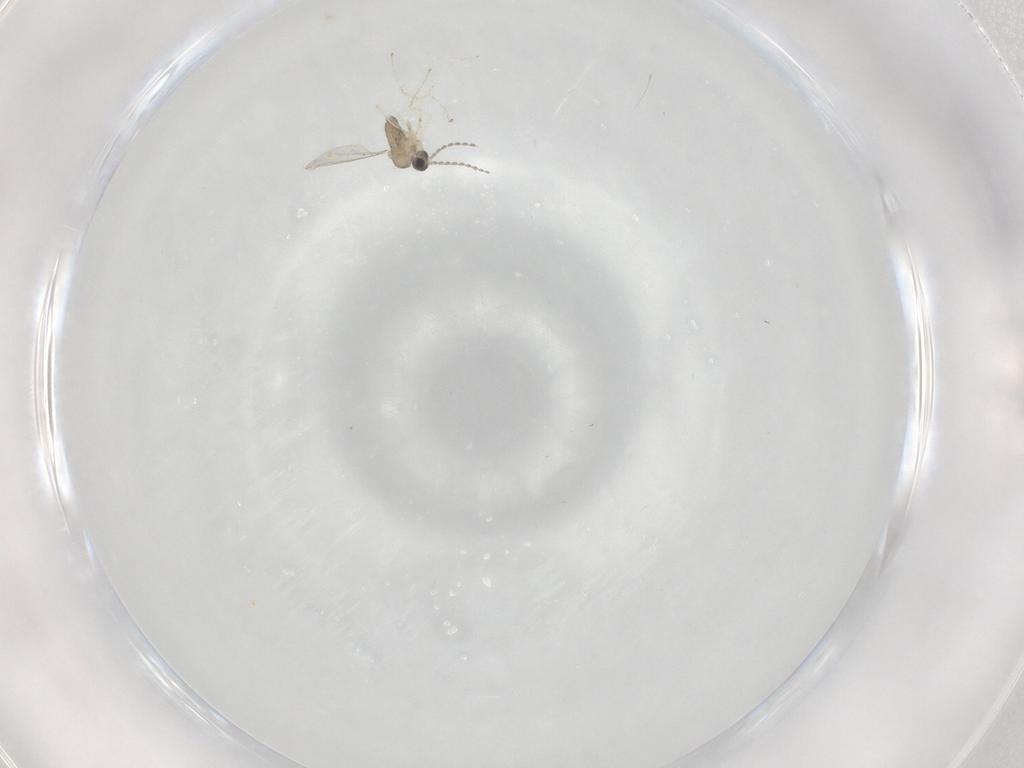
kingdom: Animalia
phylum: Arthropoda
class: Insecta
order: Diptera
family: Cecidomyiidae
